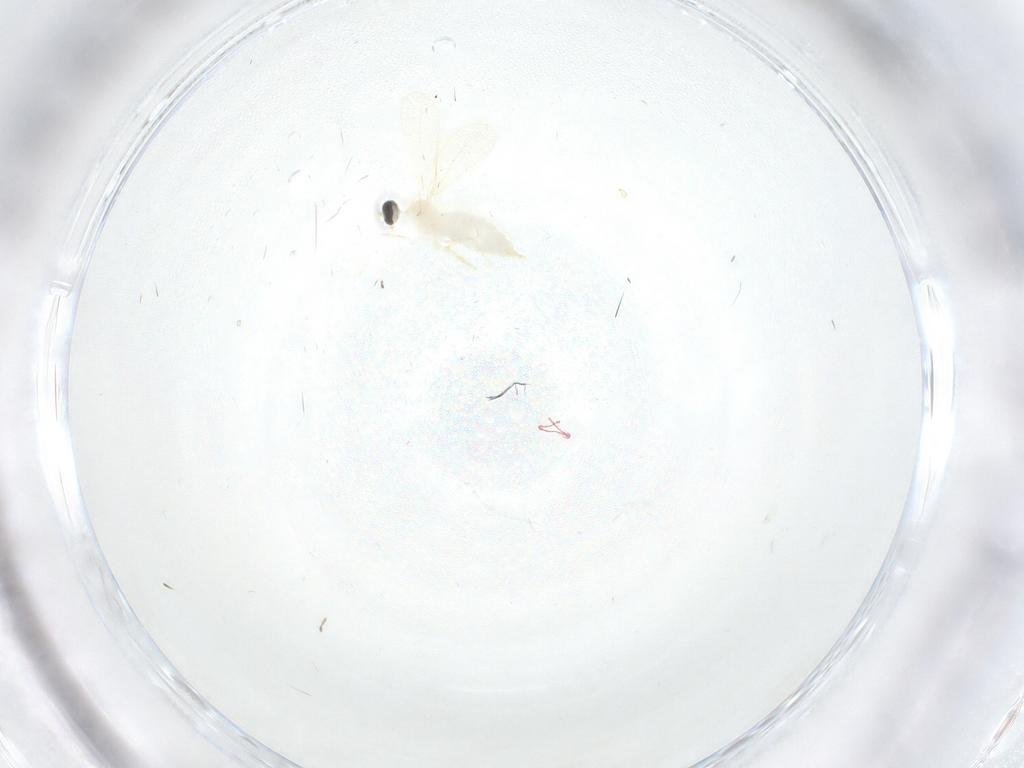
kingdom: Animalia
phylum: Arthropoda
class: Insecta
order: Diptera
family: Chironomidae
